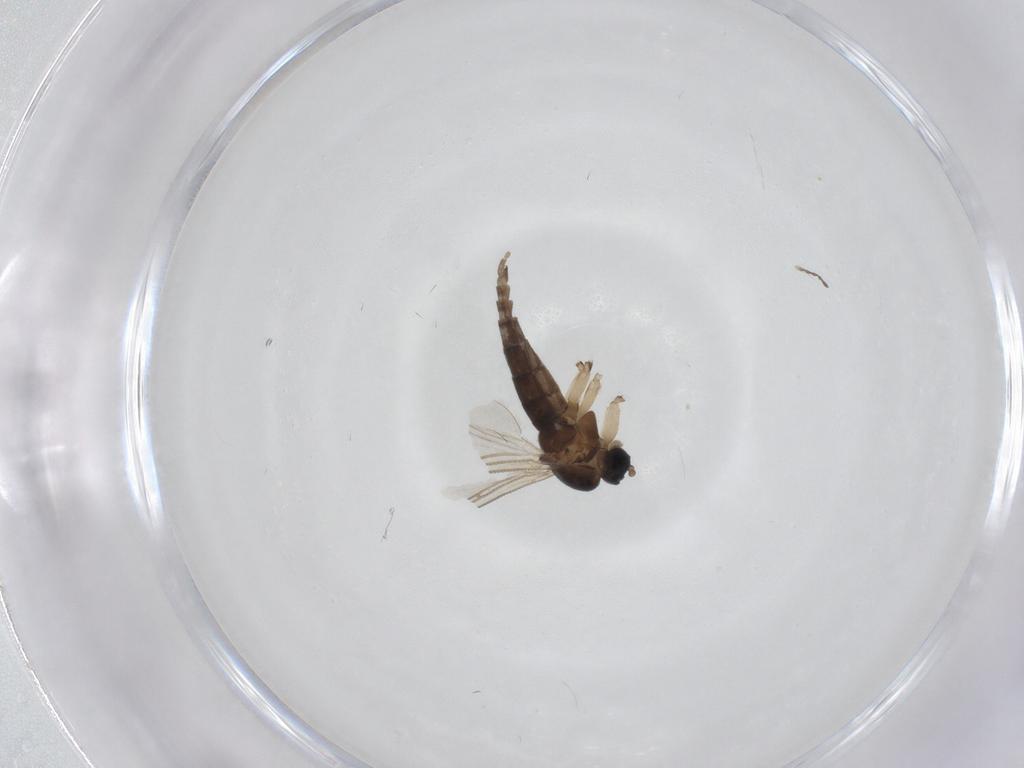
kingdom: Animalia
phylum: Arthropoda
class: Insecta
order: Diptera
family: Sciaridae
